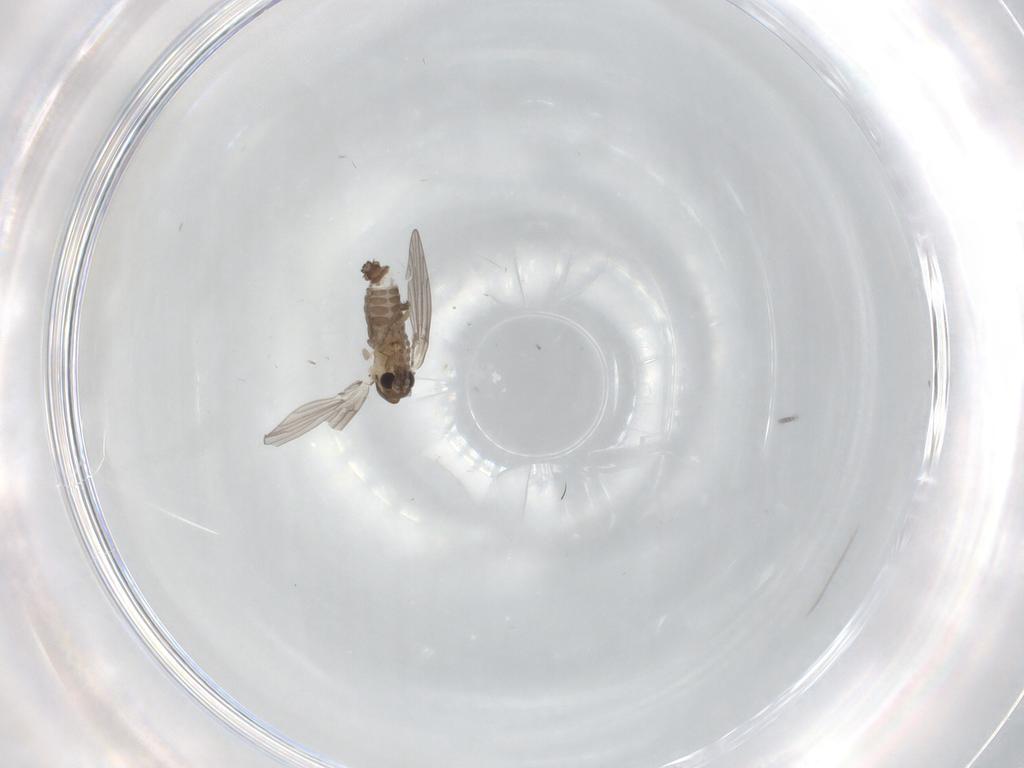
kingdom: Animalia
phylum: Arthropoda
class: Insecta
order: Diptera
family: Psychodidae
